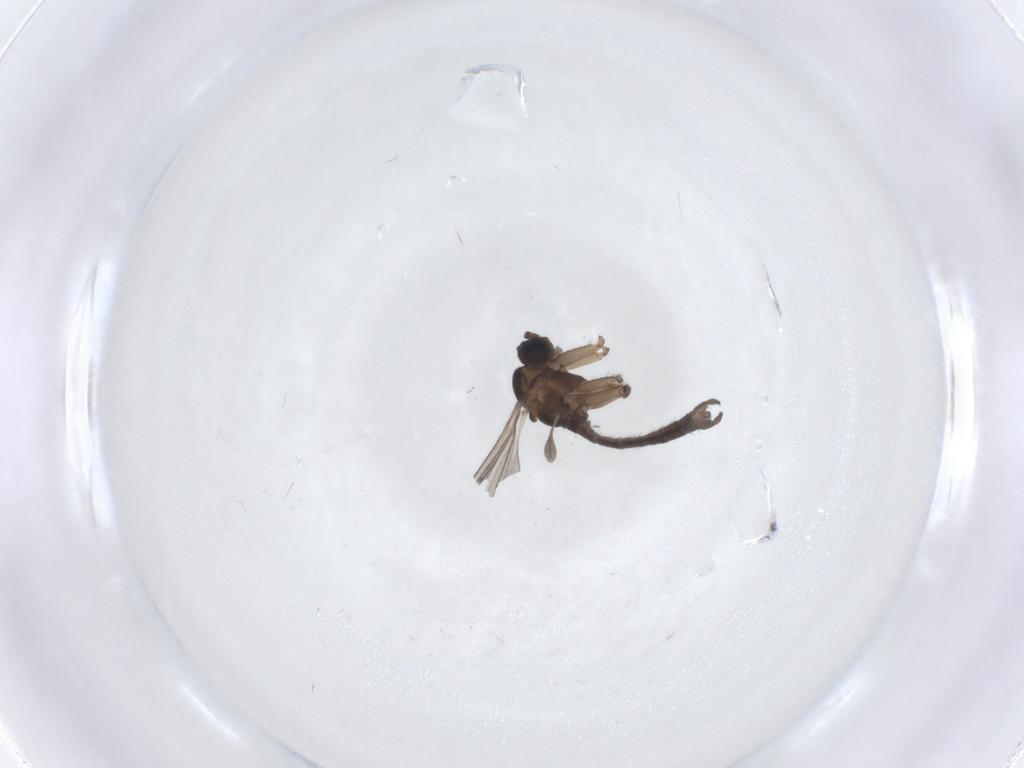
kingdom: Animalia
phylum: Arthropoda
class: Insecta
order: Diptera
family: Sciaridae
